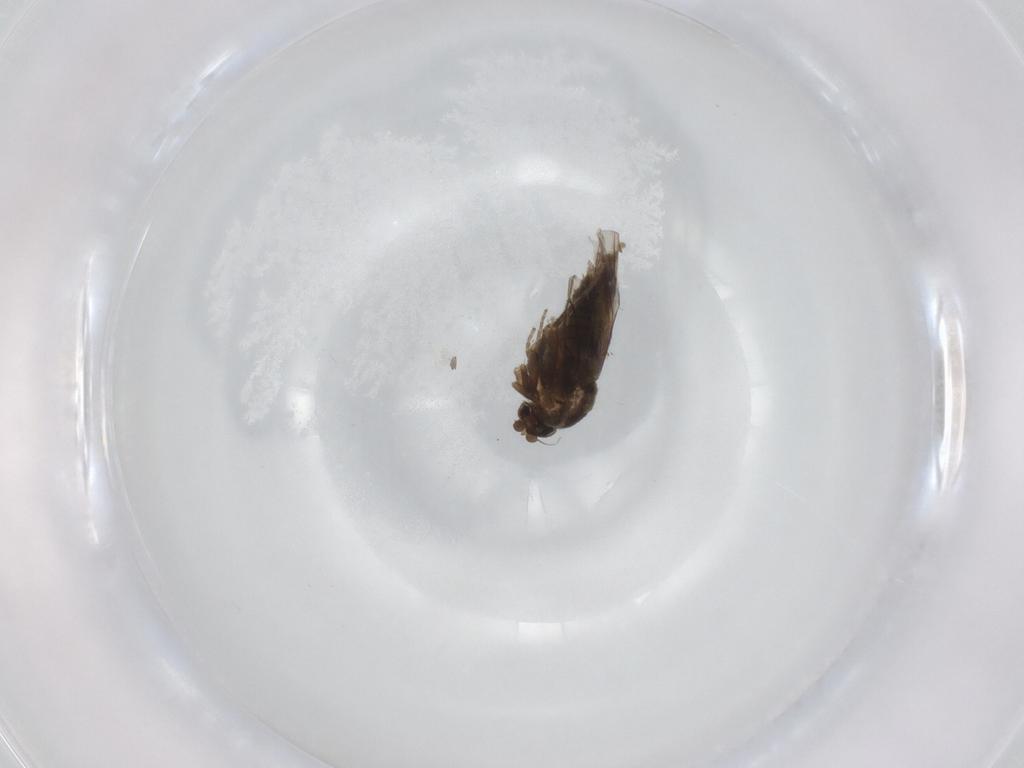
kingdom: Animalia
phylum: Arthropoda
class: Insecta
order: Diptera
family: Phoridae
